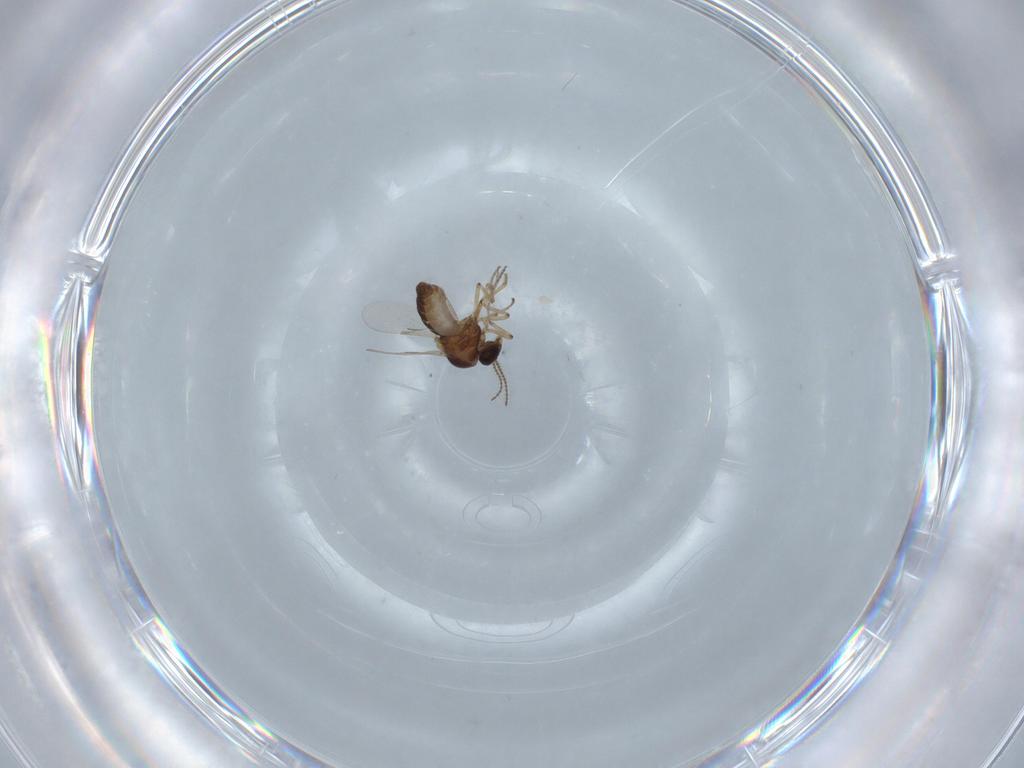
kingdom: Animalia
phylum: Arthropoda
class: Insecta
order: Diptera
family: Ceratopogonidae
